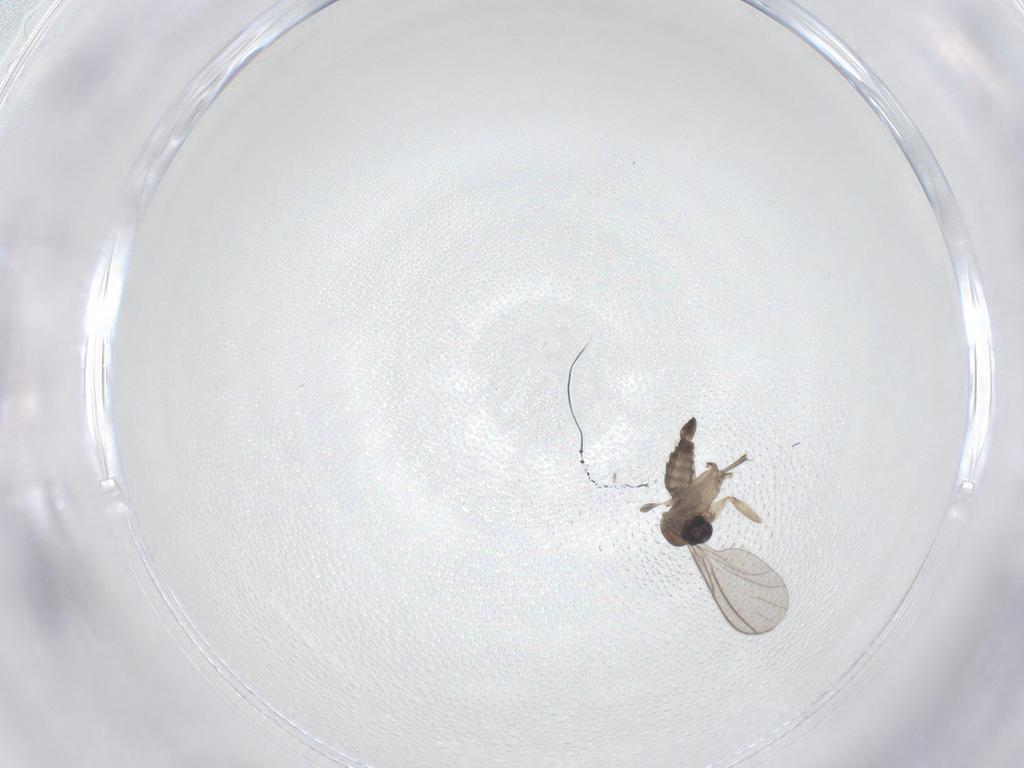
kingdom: Animalia
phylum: Arthropoda
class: Insecta
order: Diptera
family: Sciaridae
